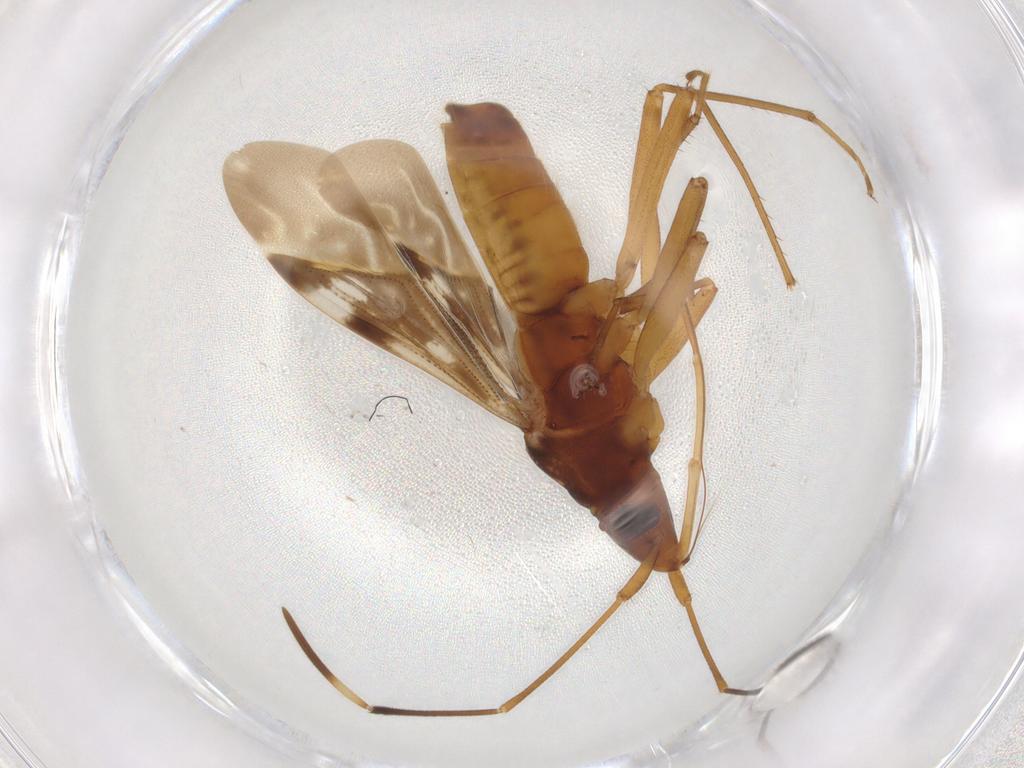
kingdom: Animalia
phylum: Arthropoda
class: Insecta
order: Hemiptera
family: Rhyparochromidae
